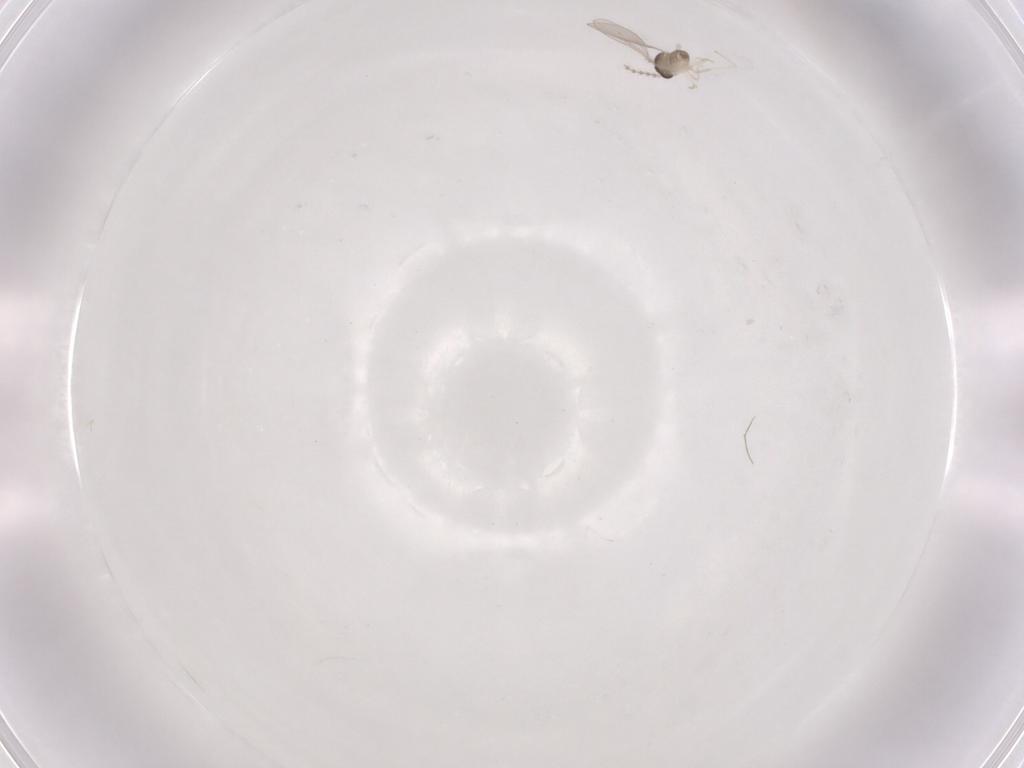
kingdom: Animalia
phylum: Arthropoda
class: Insecta
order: Diptera
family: Cecidomyiidae
